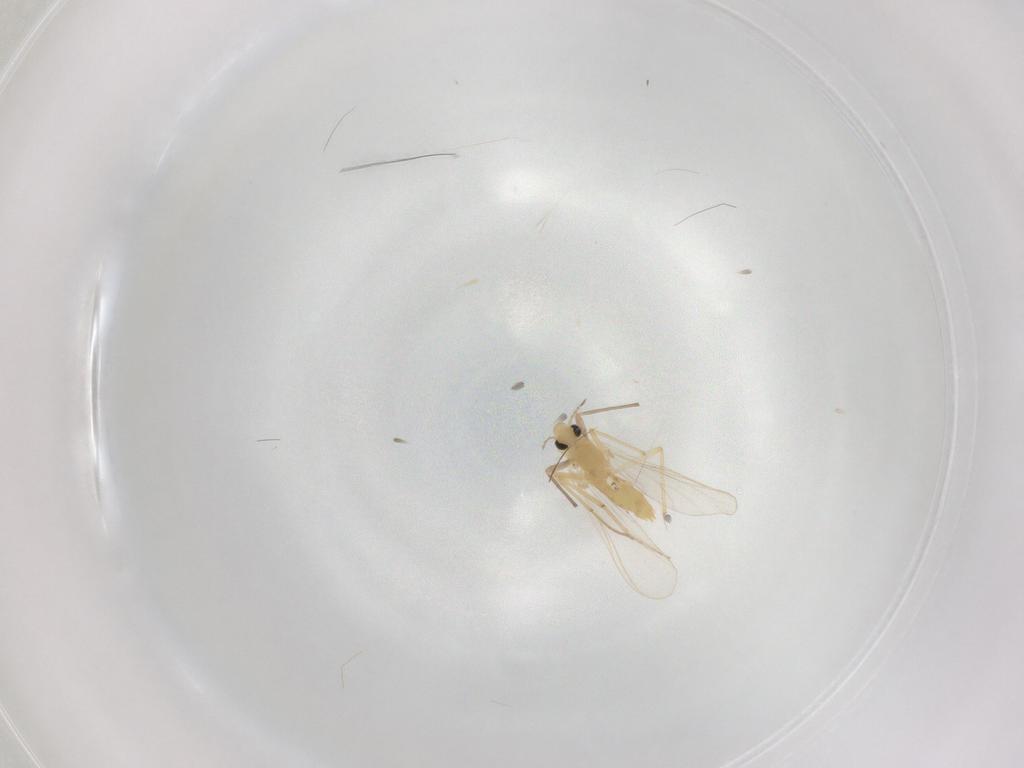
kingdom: Animalia
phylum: Arthropoda
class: Insecta
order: Diptera
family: Chironomidae
